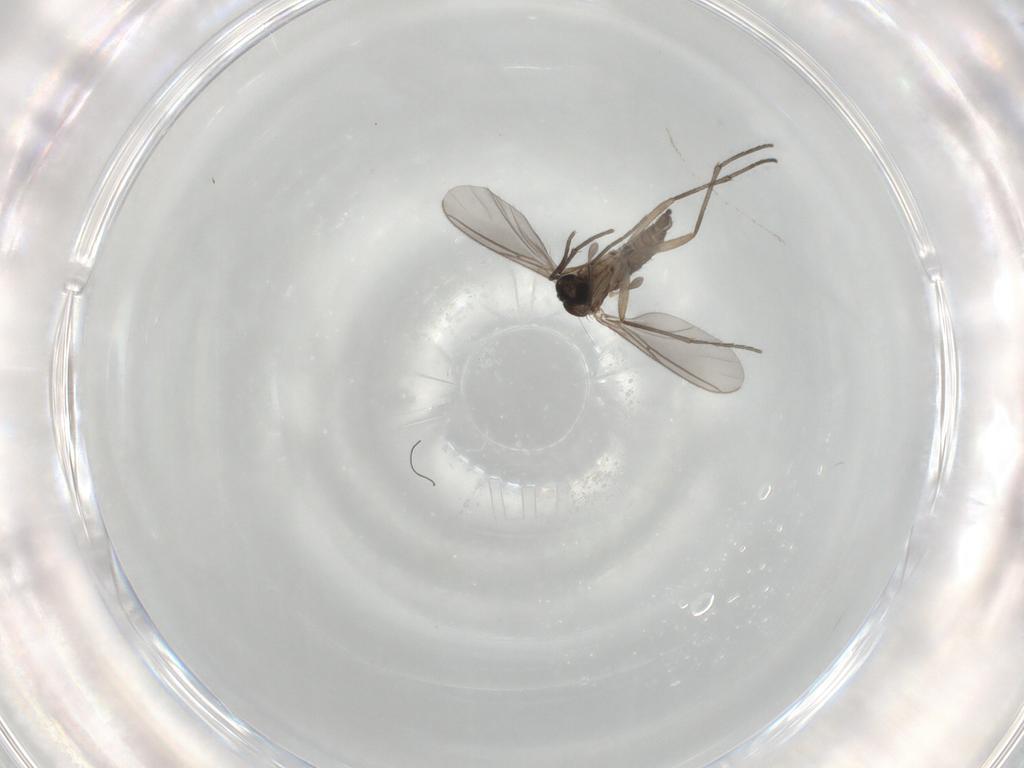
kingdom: Animalia
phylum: Arthropoda
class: Insecta
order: Diptera
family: Sciaridae
